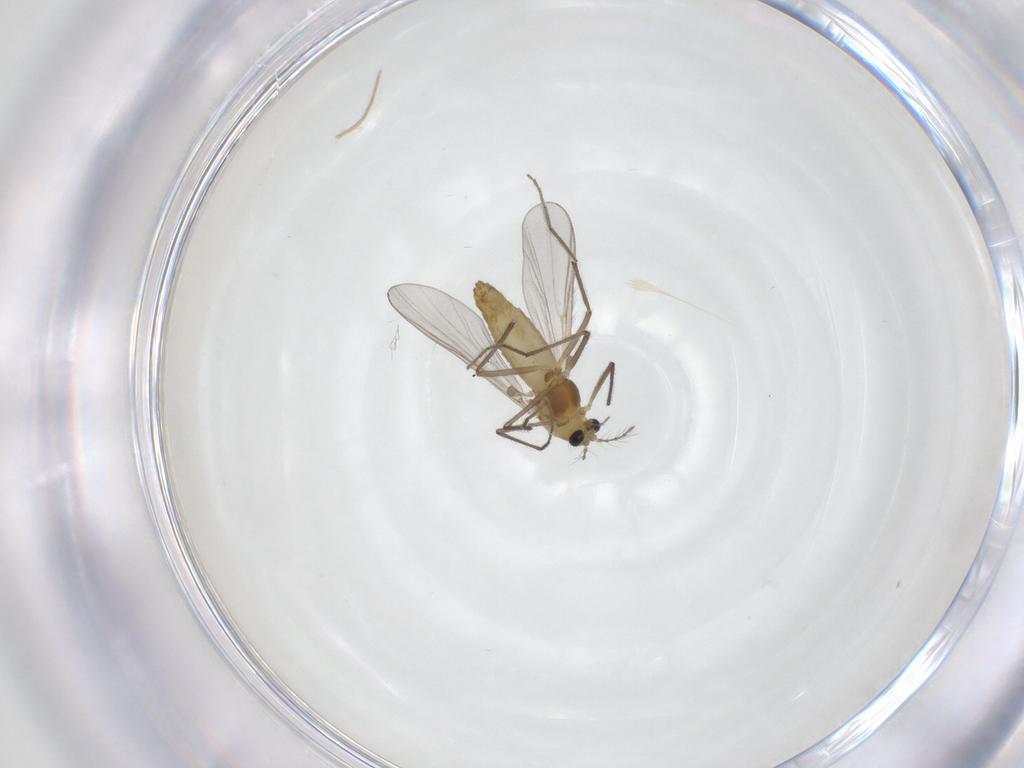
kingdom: Animalia
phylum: Arthropoda
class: Insecta
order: Diptera
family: Chironomidae
